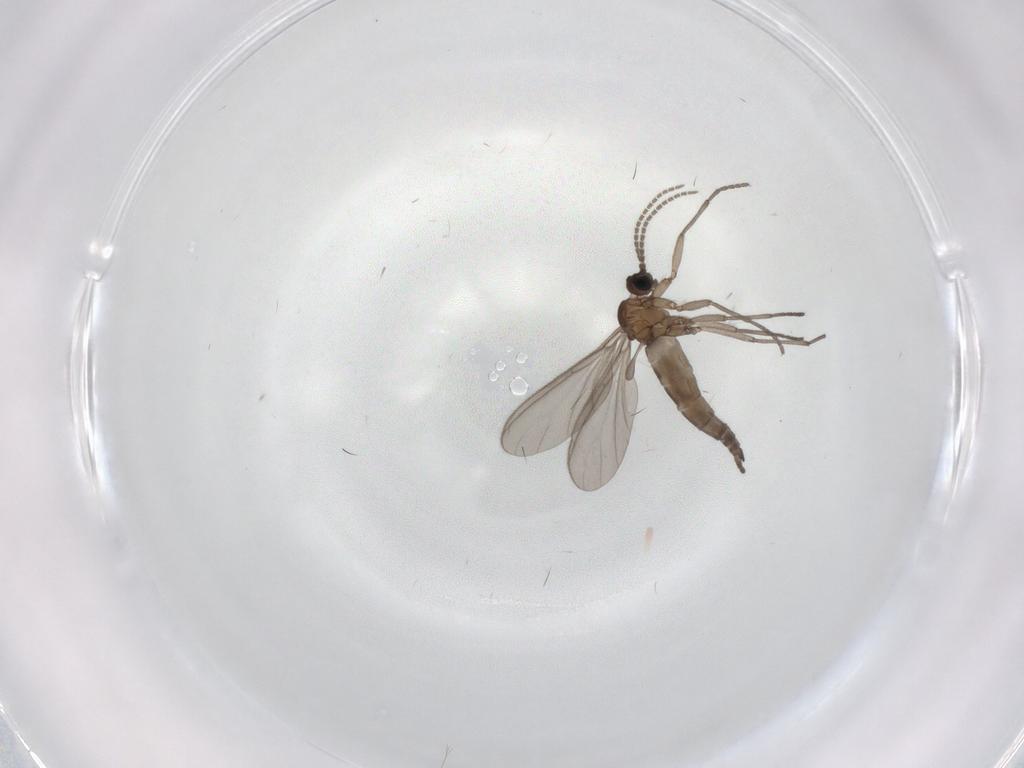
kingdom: Animalia
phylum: Arthropoda
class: Insecta
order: Diptera
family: Sciaridae
